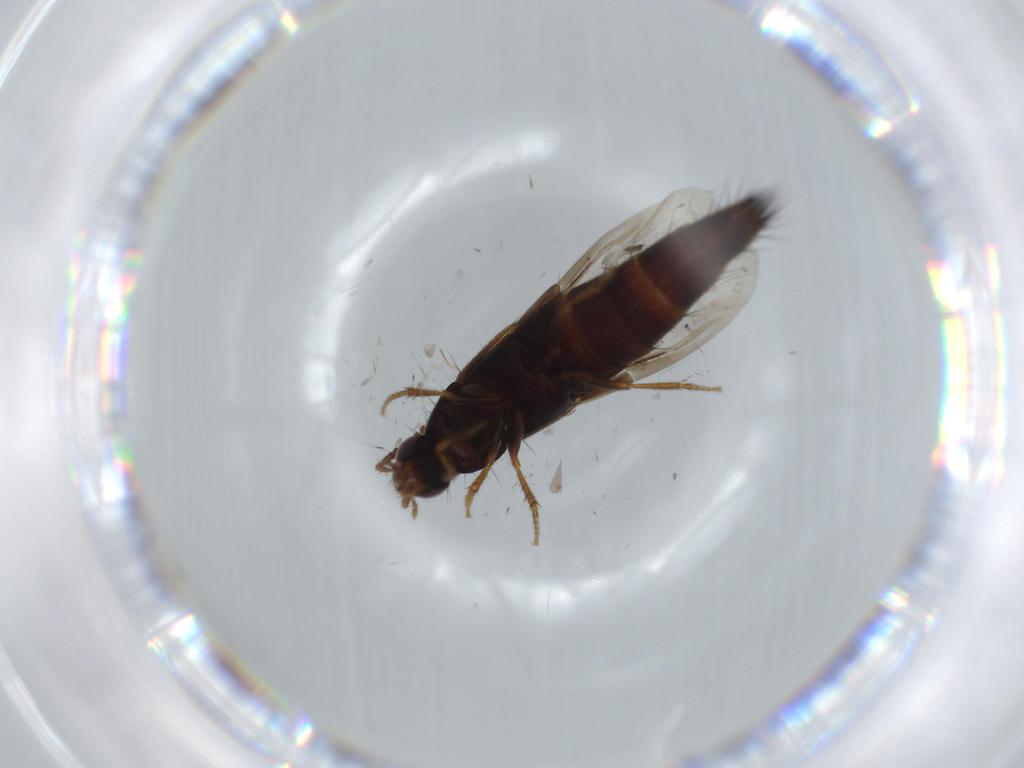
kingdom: Animalia
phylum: Arthropoda
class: Insecta
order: Coleoptera
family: Staphylinidae
